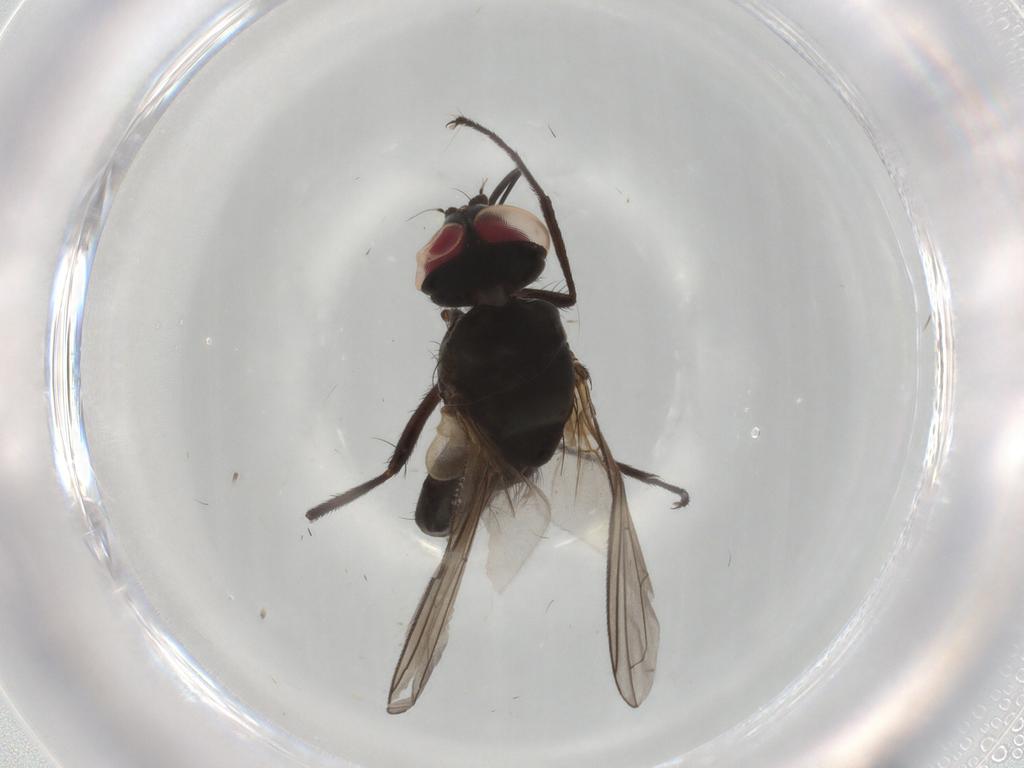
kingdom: Animalia
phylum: Arthropoda
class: Insecta
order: Diptera
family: Tachinidae
